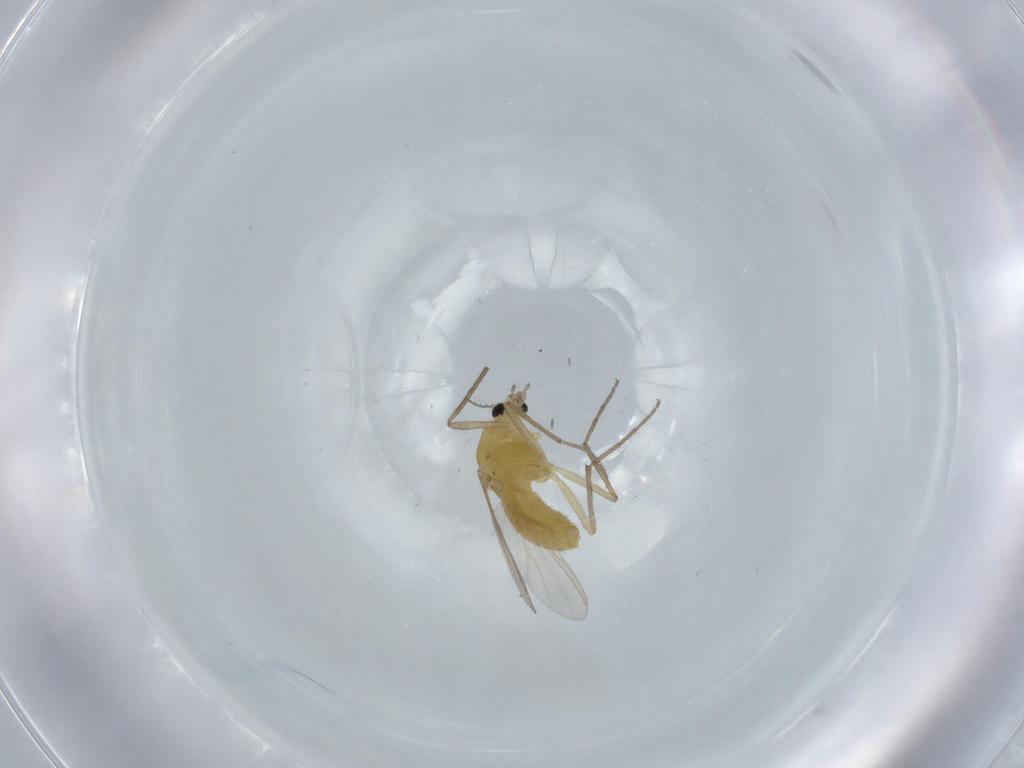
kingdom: Animalia
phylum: Arthropoda
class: Insecta
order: Diptera
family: Chironomidae
